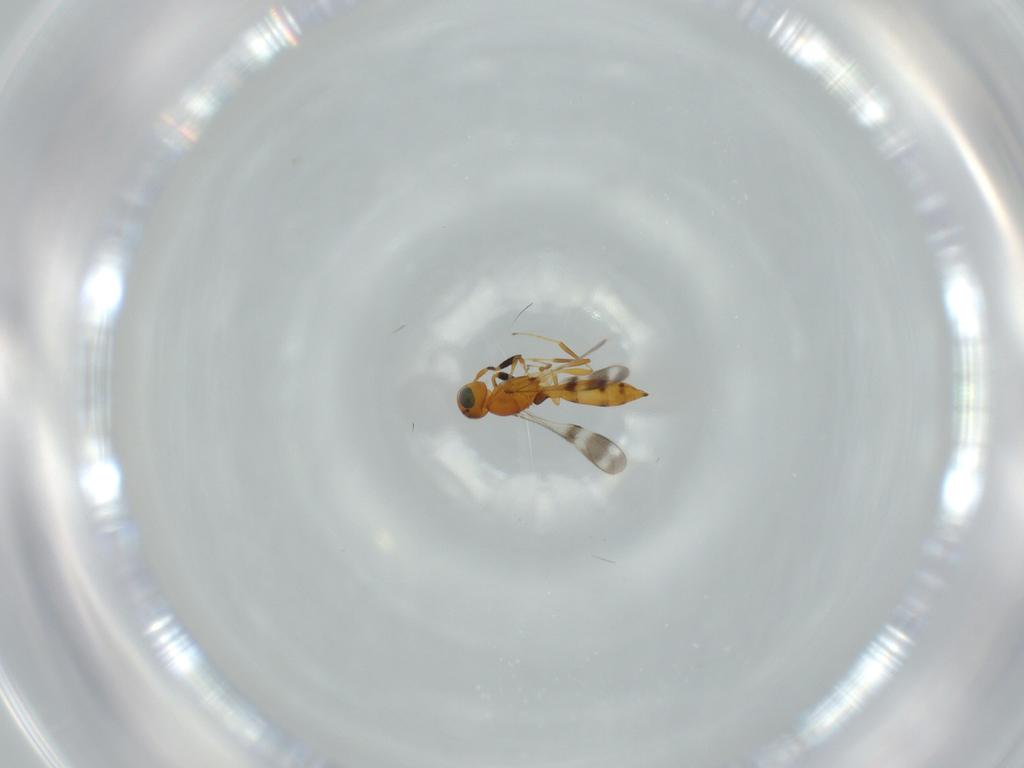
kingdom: Animalia
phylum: Arthropoda
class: Insecta
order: Hymenoptera
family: Scelionidae
